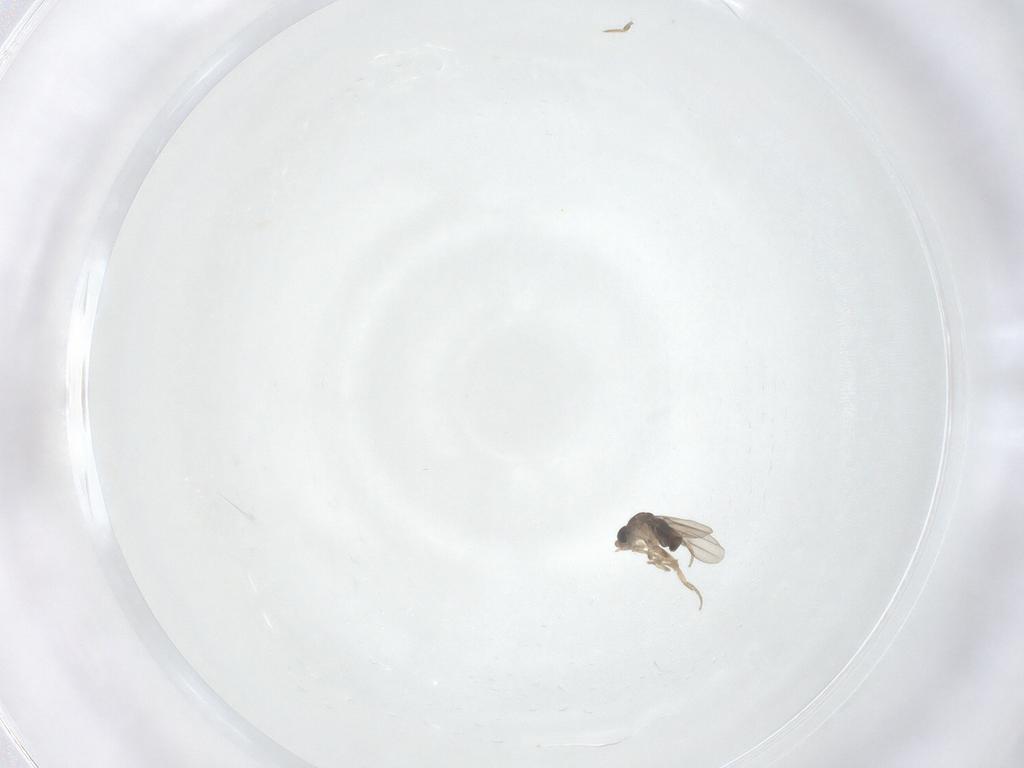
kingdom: Animalia
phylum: Arthropoda
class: Insecta
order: Diptera
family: Phoridae
